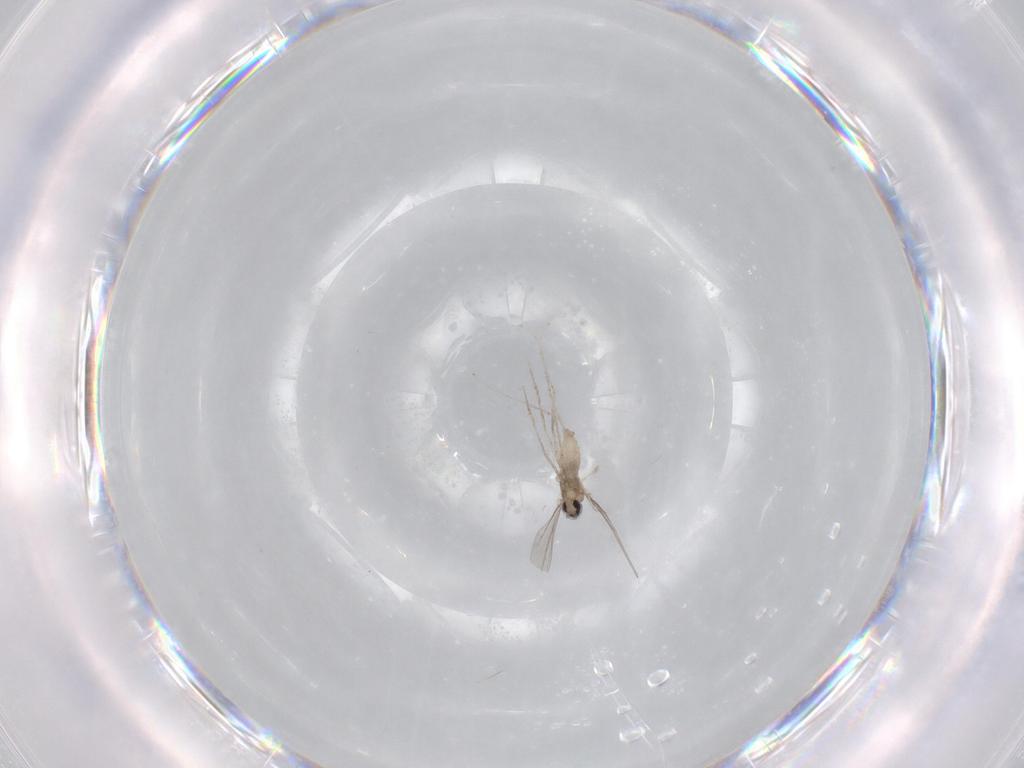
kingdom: Animalia
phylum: Arthropoda
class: Insecta
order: Diptera
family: Cecidomyiidae
